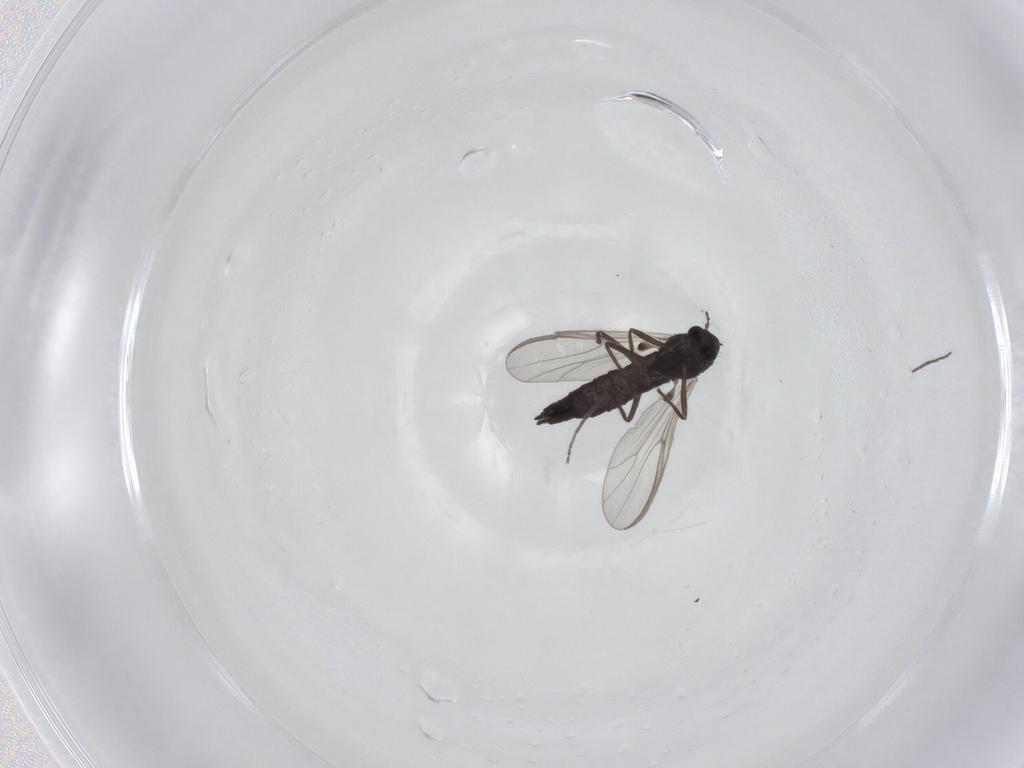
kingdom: Animalia
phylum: Arthropoda
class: Insecta
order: Diptera
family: Chironomidae
